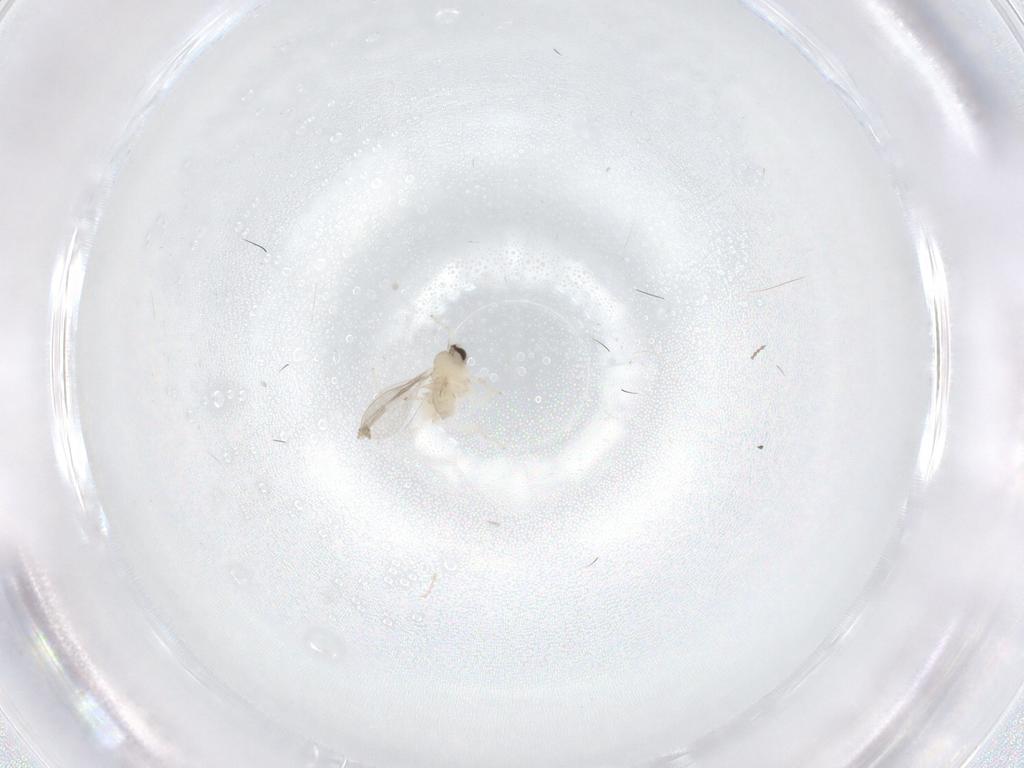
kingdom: Animalia
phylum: Arthropoda
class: Insecta
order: Diptera
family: Cecidomyiidae
